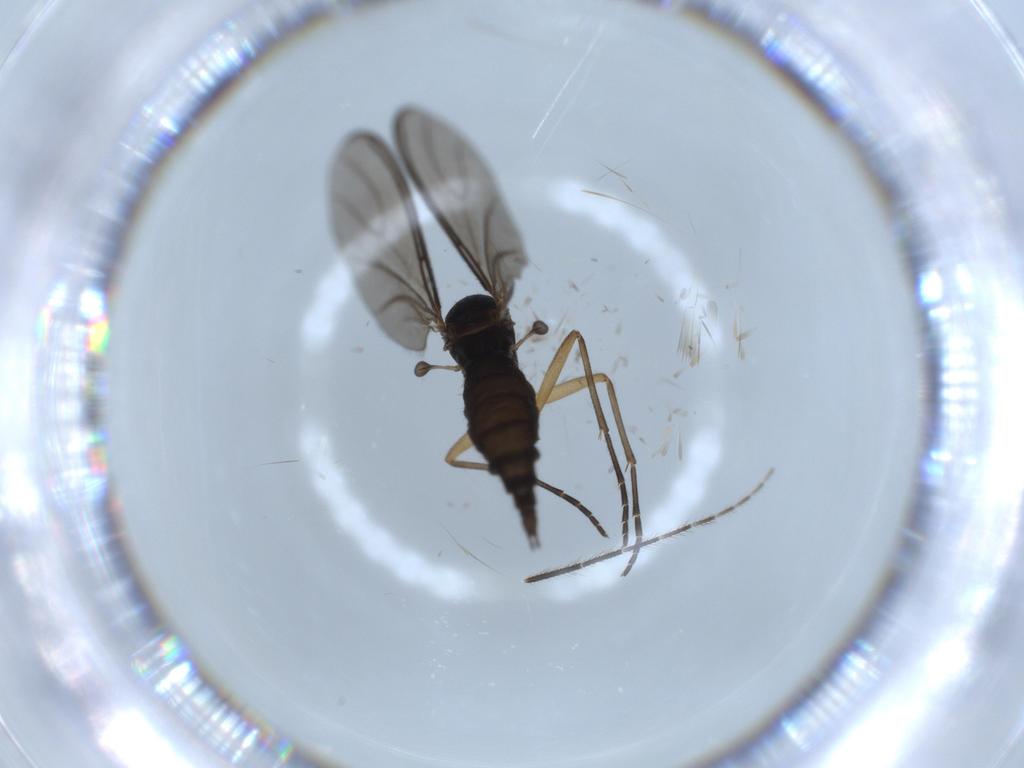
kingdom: Animalia
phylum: Arthropoda
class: Insecta
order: Diptera
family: Sciaridae
